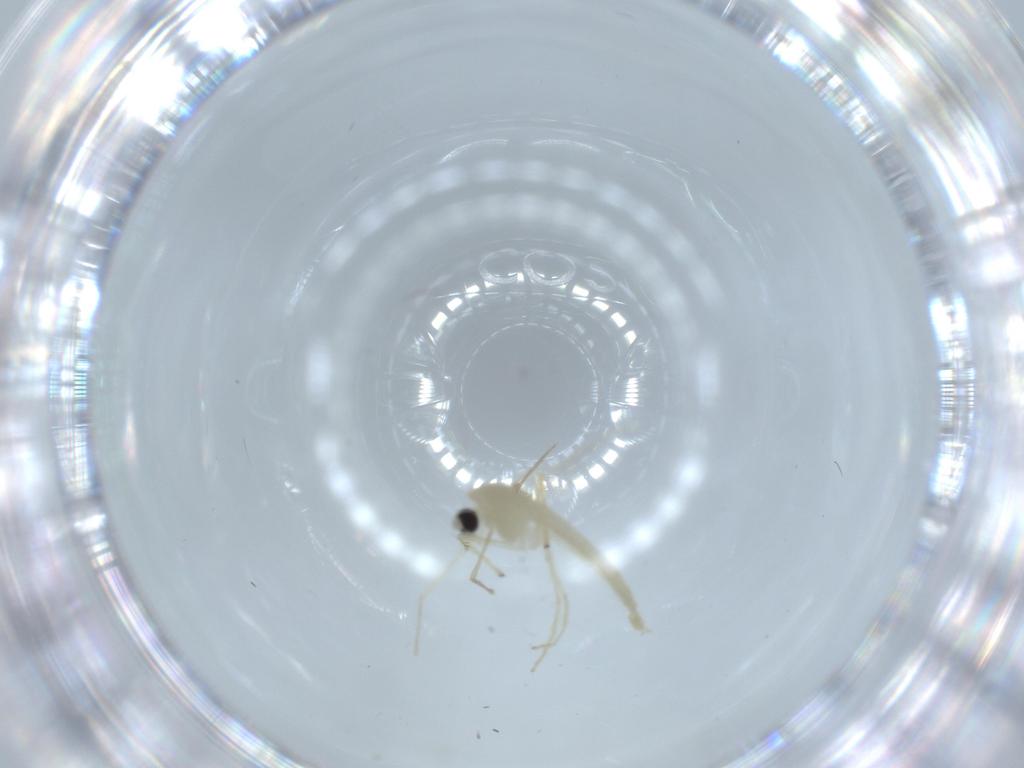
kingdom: Animalia
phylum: Arthropoda
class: Insecta
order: Diptera
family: Chironomidae
